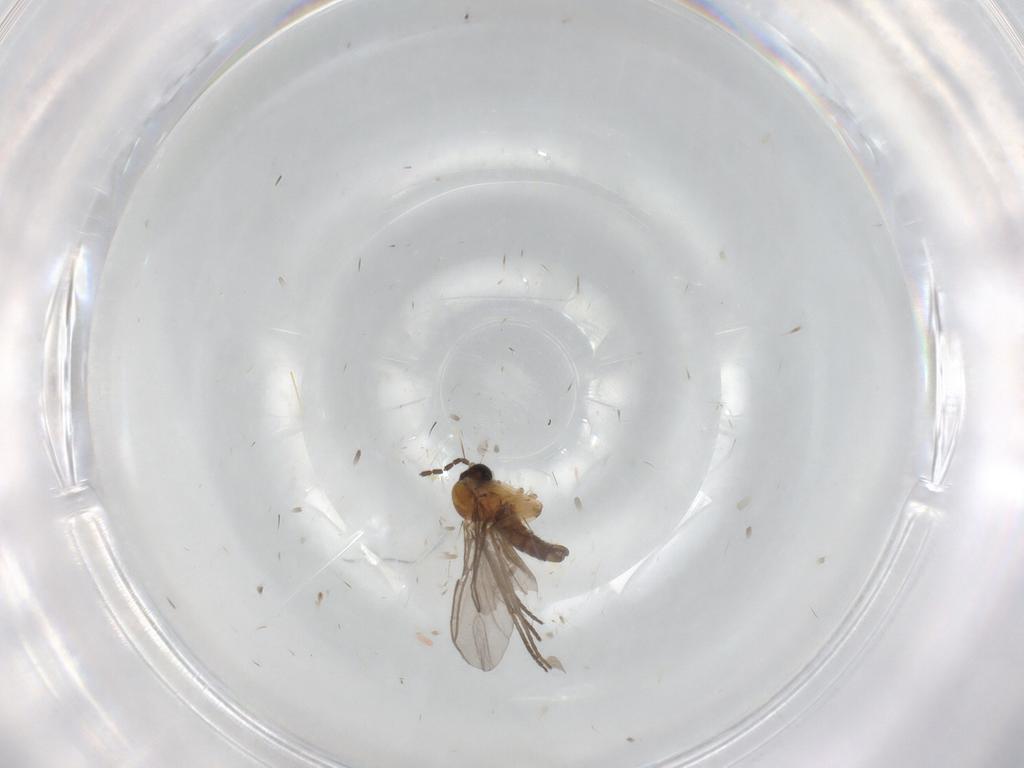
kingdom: Animalia
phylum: Arthropoda
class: Insecta
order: Diptera
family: Sciaridae
